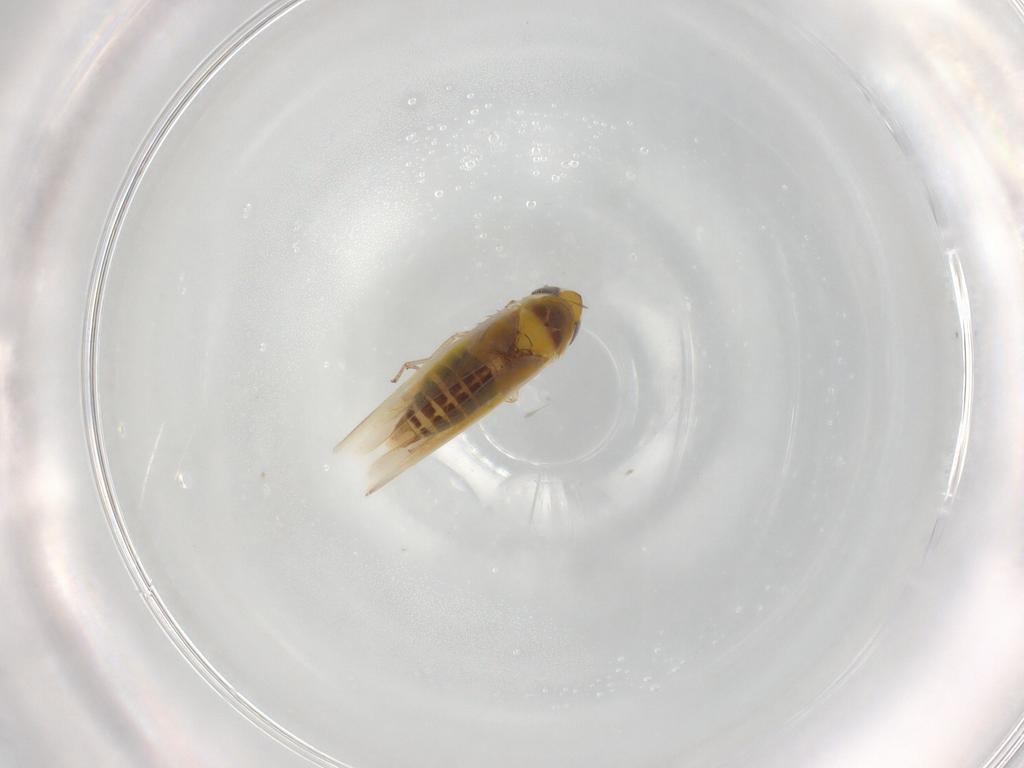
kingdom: Animalia
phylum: Arthropoda
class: Insecta
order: Hemiptera
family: Cicadellidae
